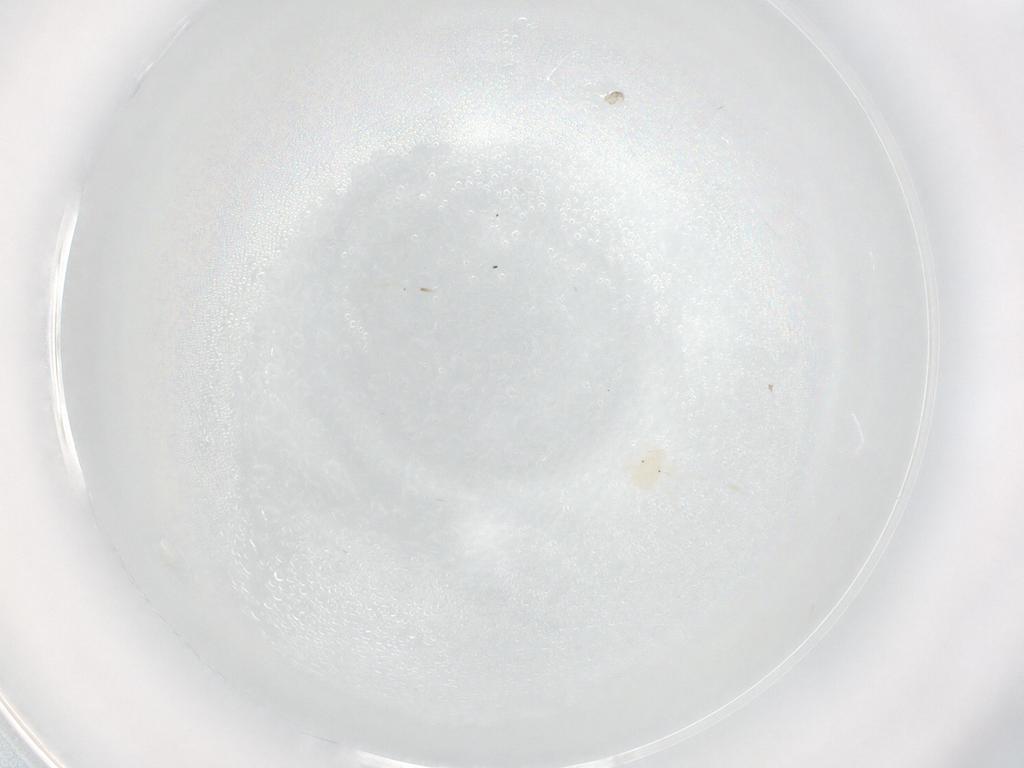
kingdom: Animalia
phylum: Arthropoda
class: Arachnida
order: Trombidiformes
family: Anystidae
